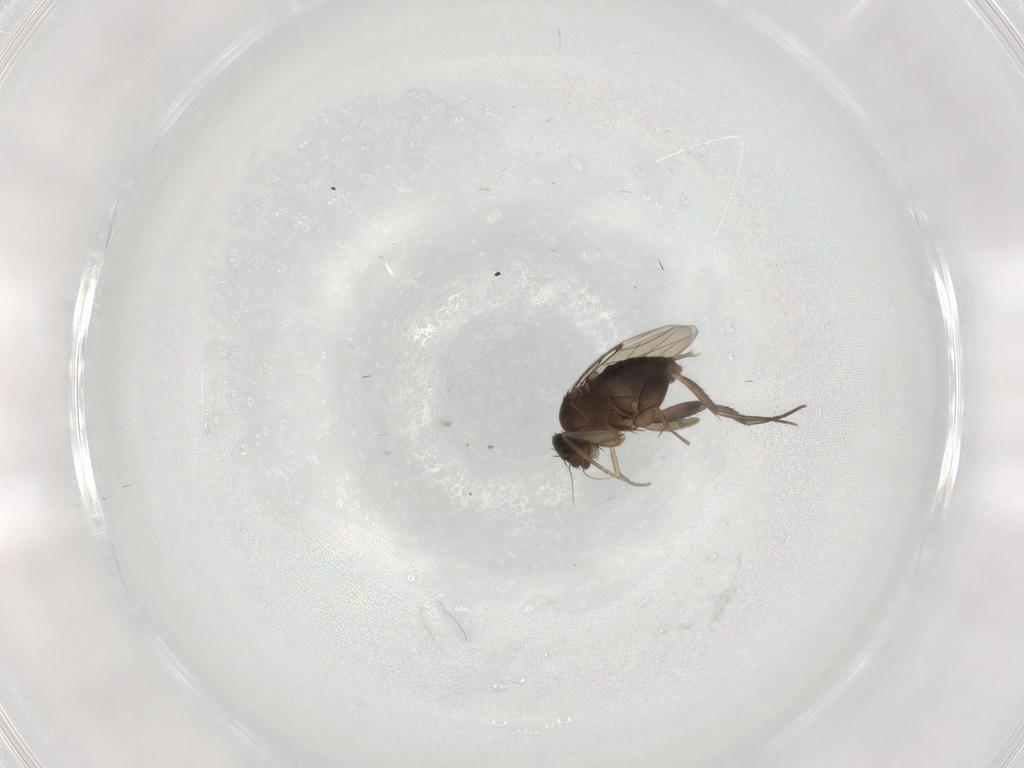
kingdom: Animalia
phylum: Arthropoda
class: Insecta
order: Diptera
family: Phoridae
